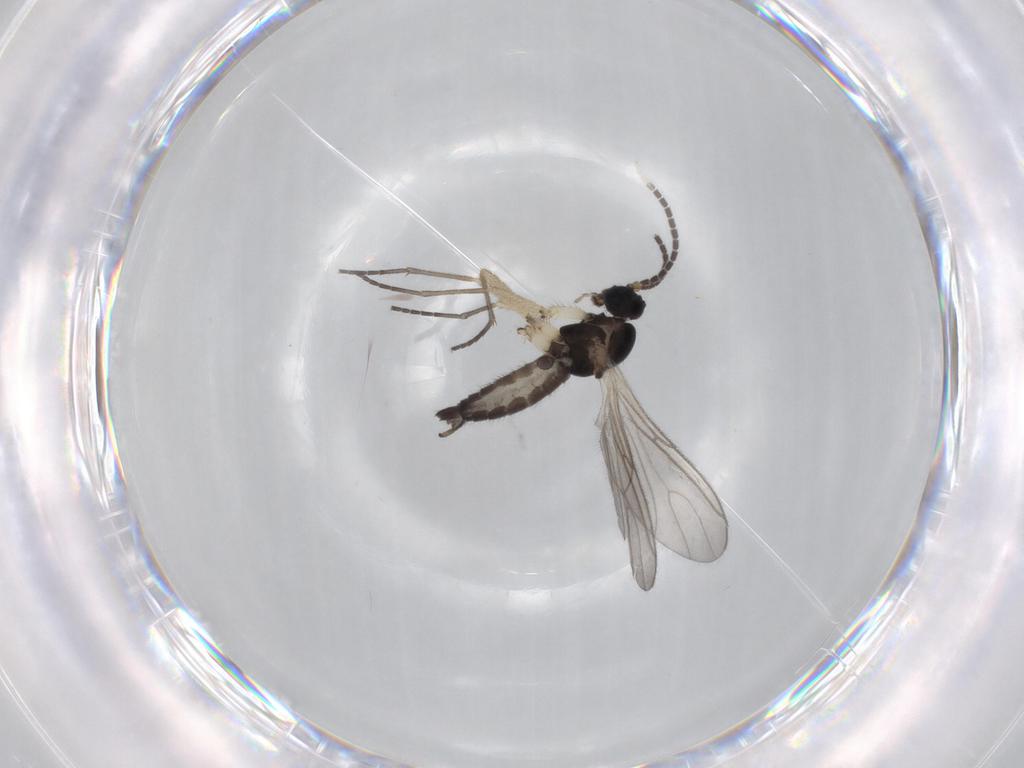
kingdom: Animalia
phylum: Arthropoda
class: Insecta
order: Diptera
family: Sciaridae
